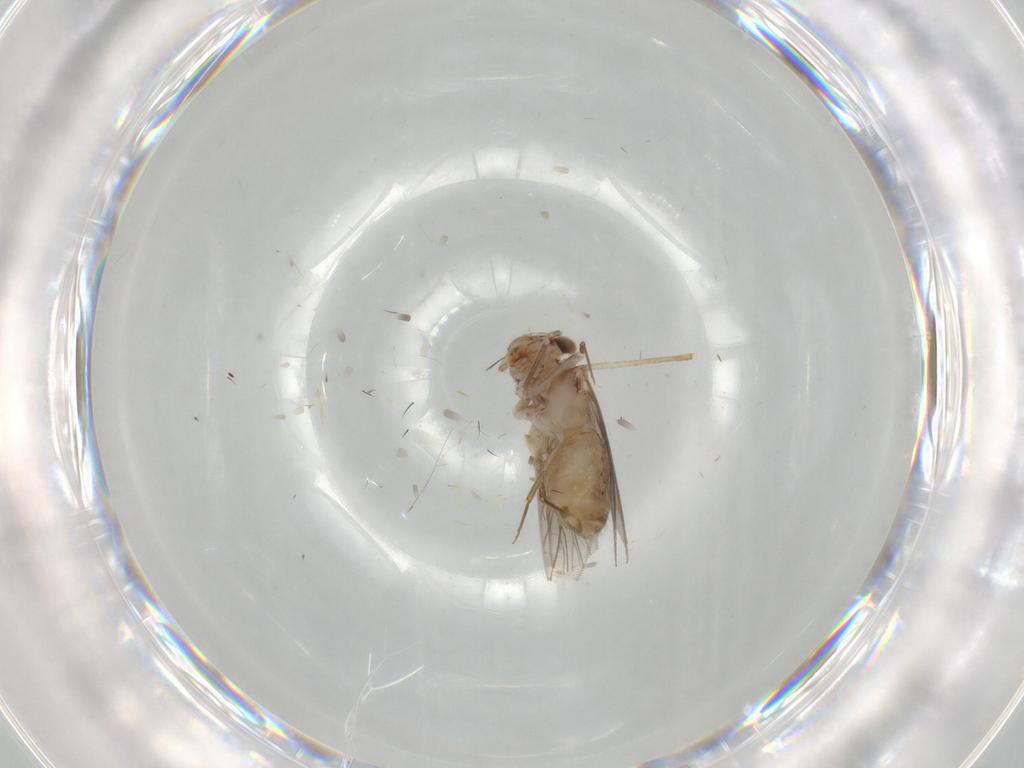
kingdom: Animalia
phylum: Arthropoda
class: Insecta
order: Psocodea
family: Lepidopsocidae
